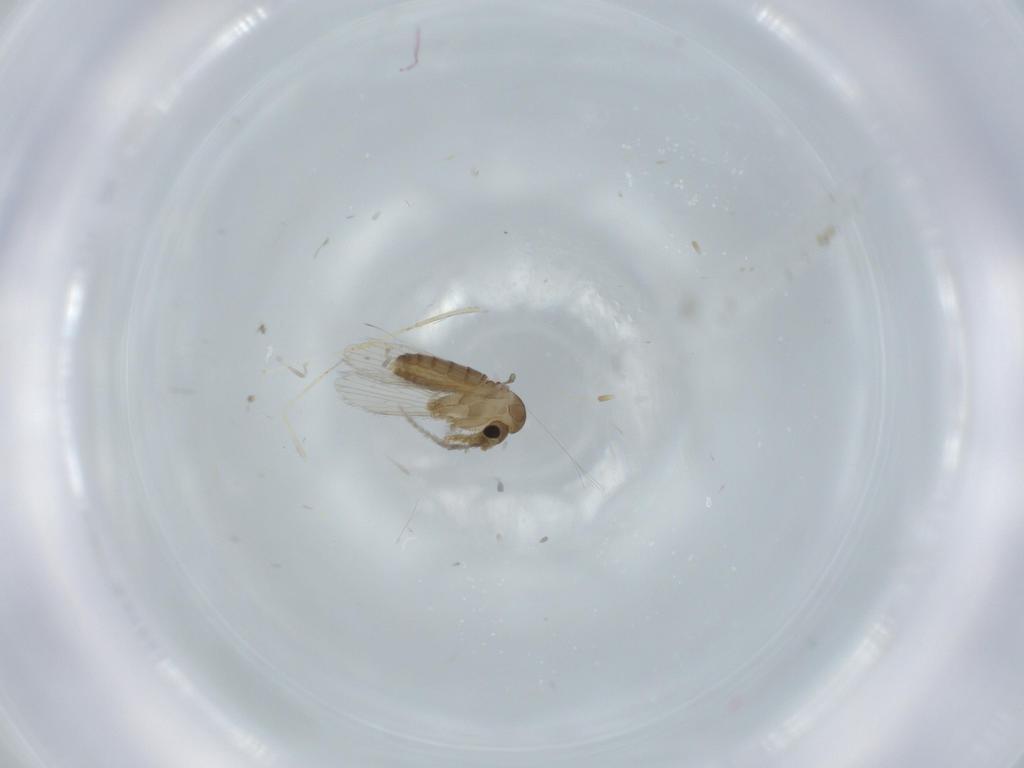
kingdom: Animalia
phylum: Arthropoda
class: Insecta
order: Diptera
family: Psychodidae
